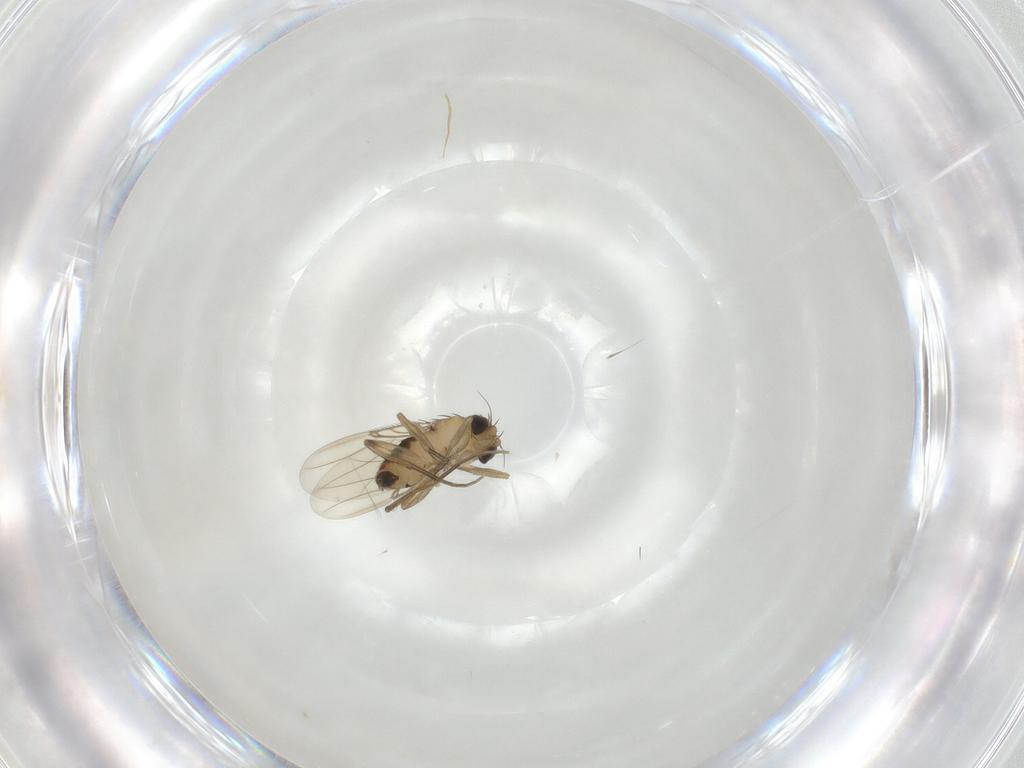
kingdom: Animalia
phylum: Arthropoda
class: Insecta
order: Diptera
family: Phoridae
